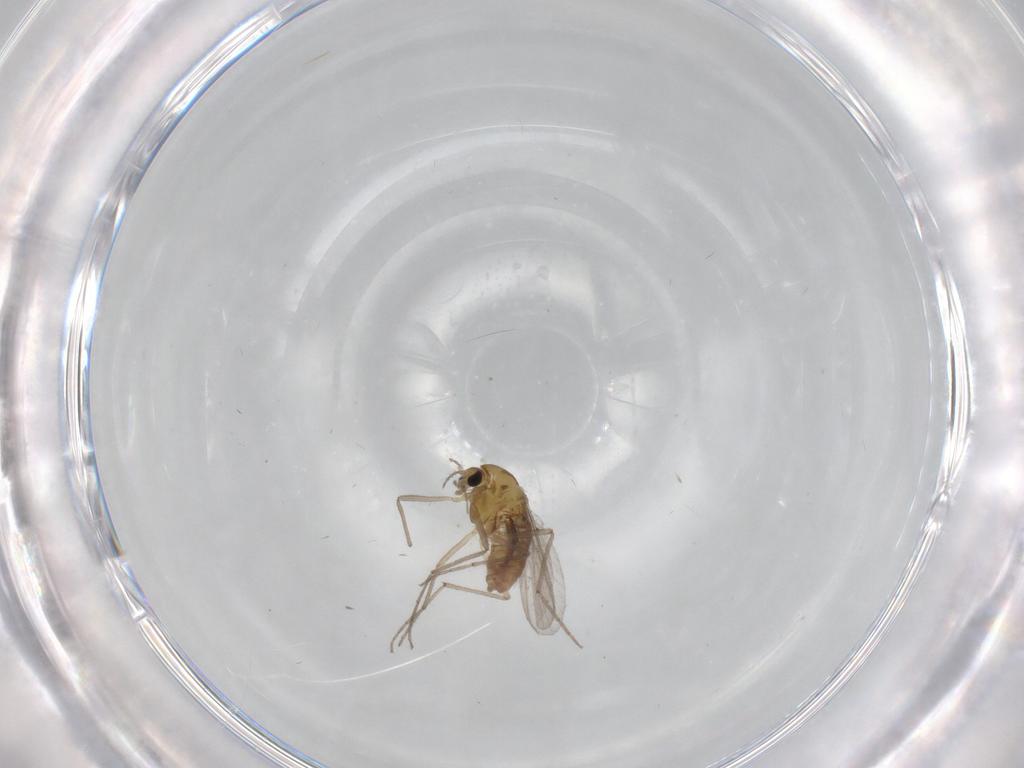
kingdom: Animalia
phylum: Arthropoda
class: Insecta
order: Diptera
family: Chironomidae
